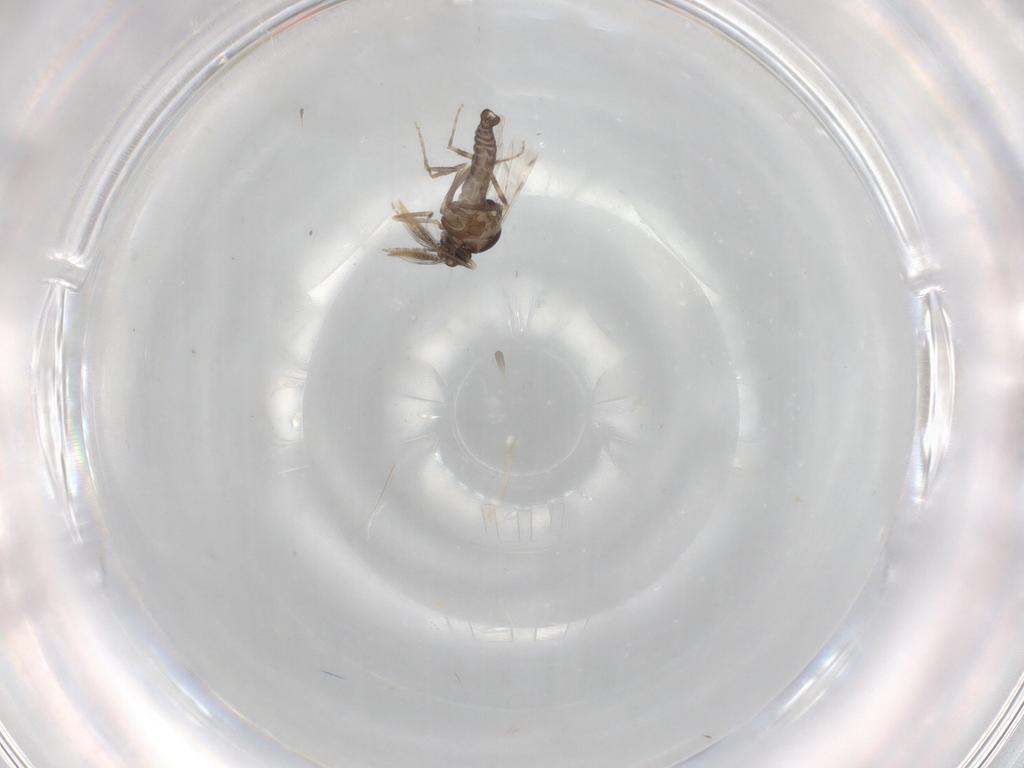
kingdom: Animalia
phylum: Arthropoda
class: Insecta
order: Diptera
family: Ceratopogonidae
